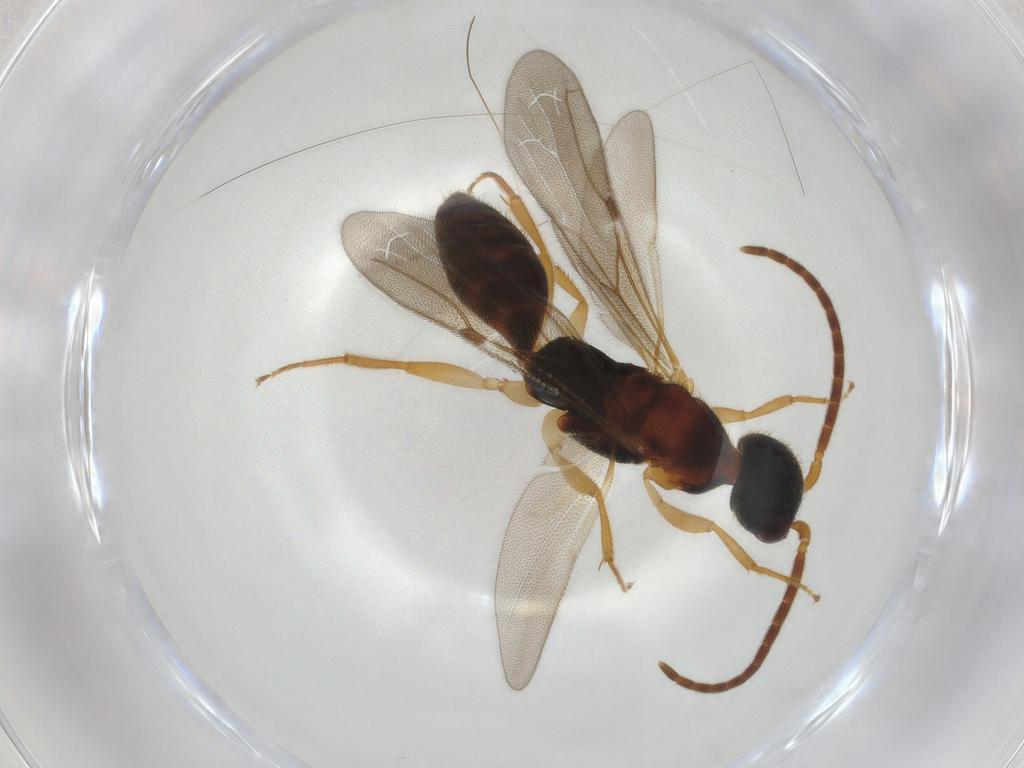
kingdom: Animalia
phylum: Arthropoda
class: Insecta
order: Hymenoptera
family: Bethylidae
